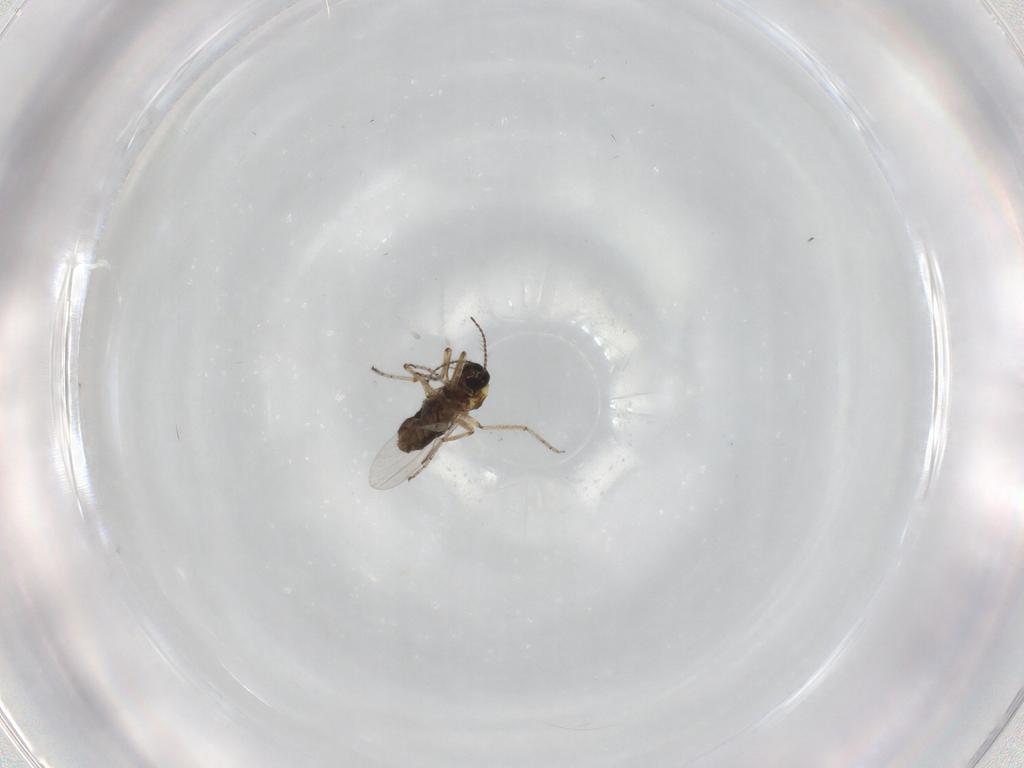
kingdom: Animalia
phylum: Arthropoda
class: Insecta
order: Diptera
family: Ceratopogonidae
